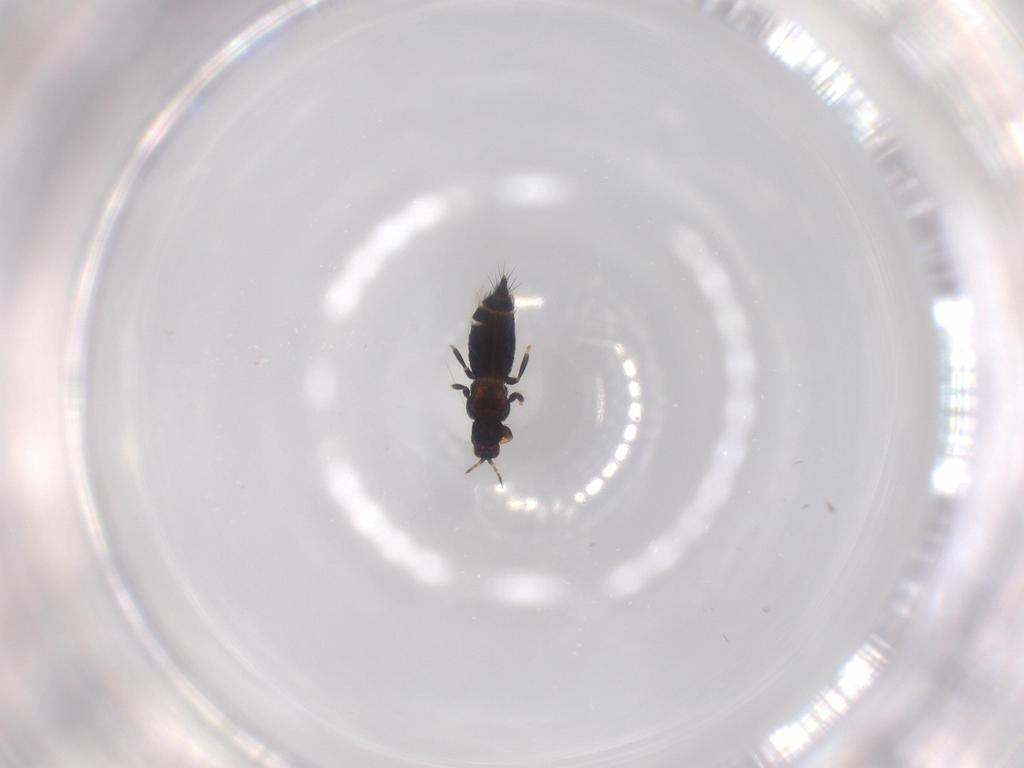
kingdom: Animalia
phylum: Arthropoda
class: Insecta
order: Thysanoptera
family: Thripidae
